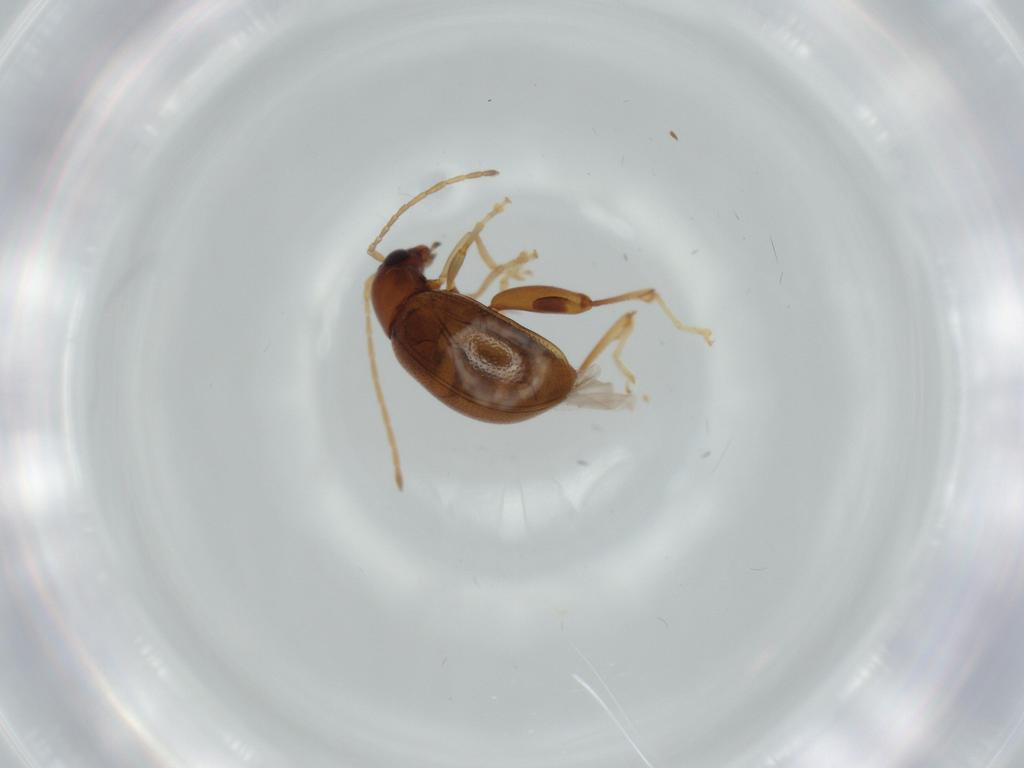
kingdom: Animalia
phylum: Arthropoda
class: Insecta
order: Coleoptera
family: Chrysomelidae
